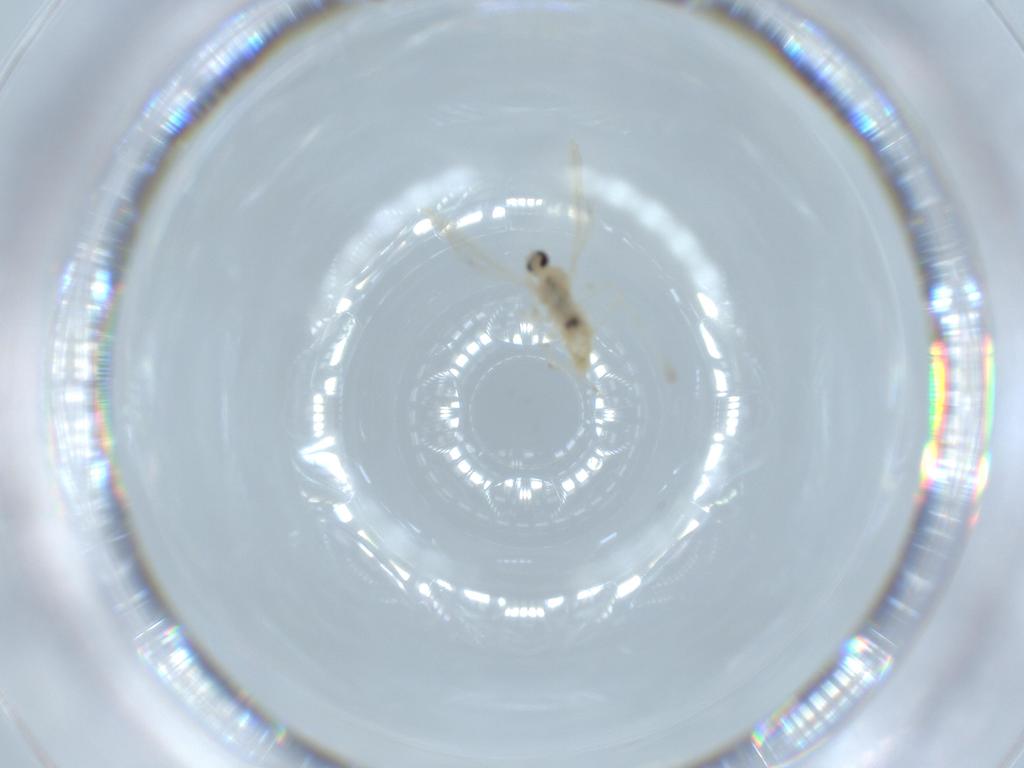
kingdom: Animalia
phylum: Arthropoda
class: Insecta
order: Diptera
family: Cecidomyiidae
